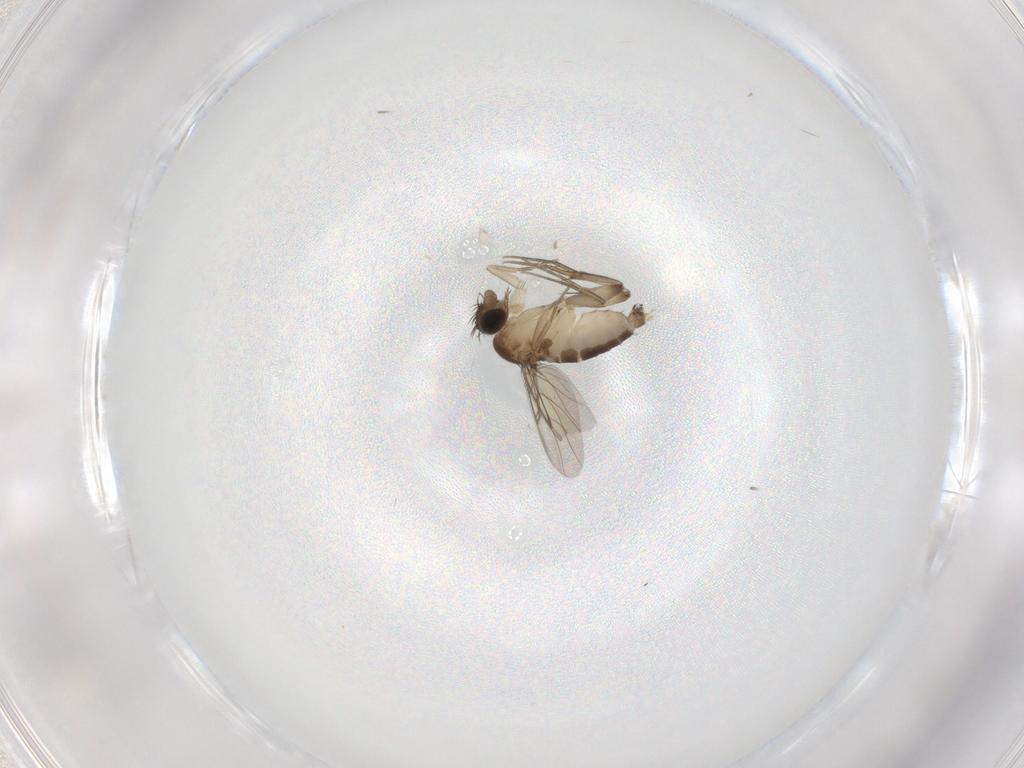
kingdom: Animalia
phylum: Arthropoda
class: Insecta
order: Diptera
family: Phoridae
